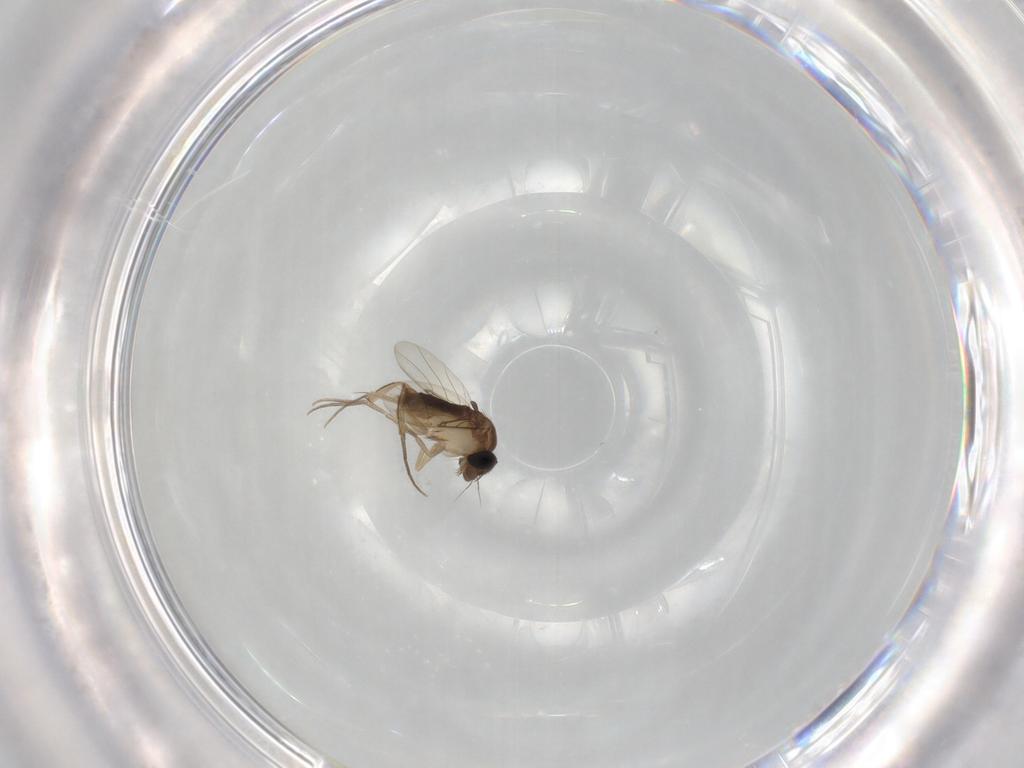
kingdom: Animalia
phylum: Arthropoda
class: Insecta
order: Diptera
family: Phoridae
